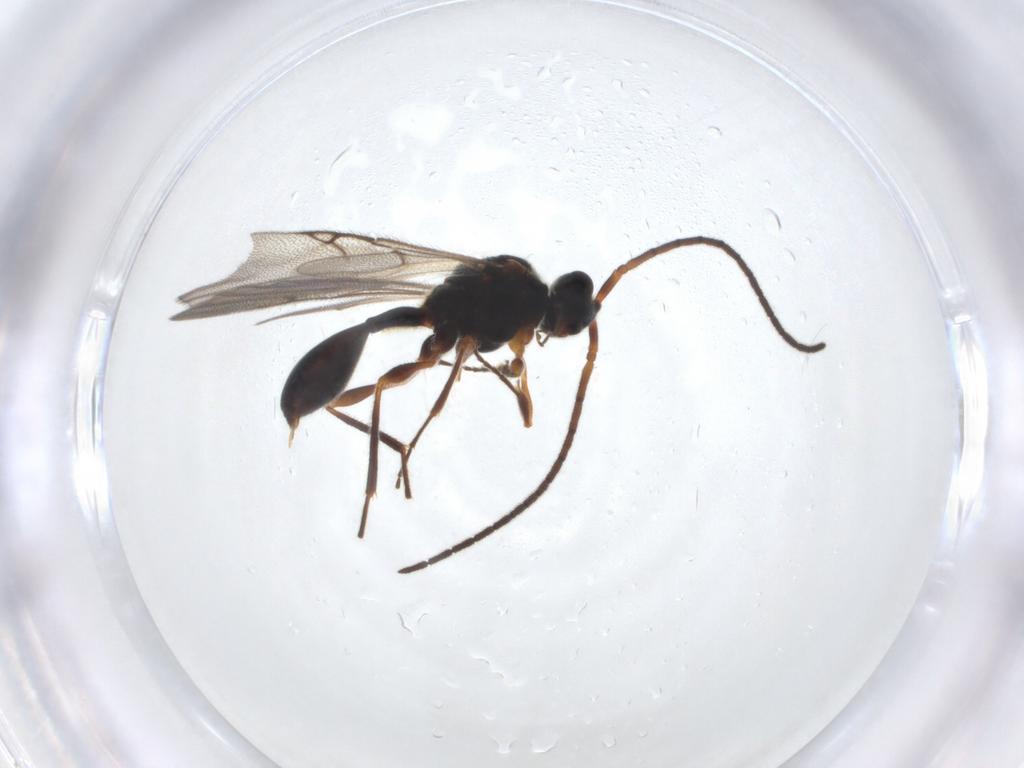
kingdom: Animalia
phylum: Arthropoda
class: Insecta
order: Hymenoptera
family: Diapriidae
